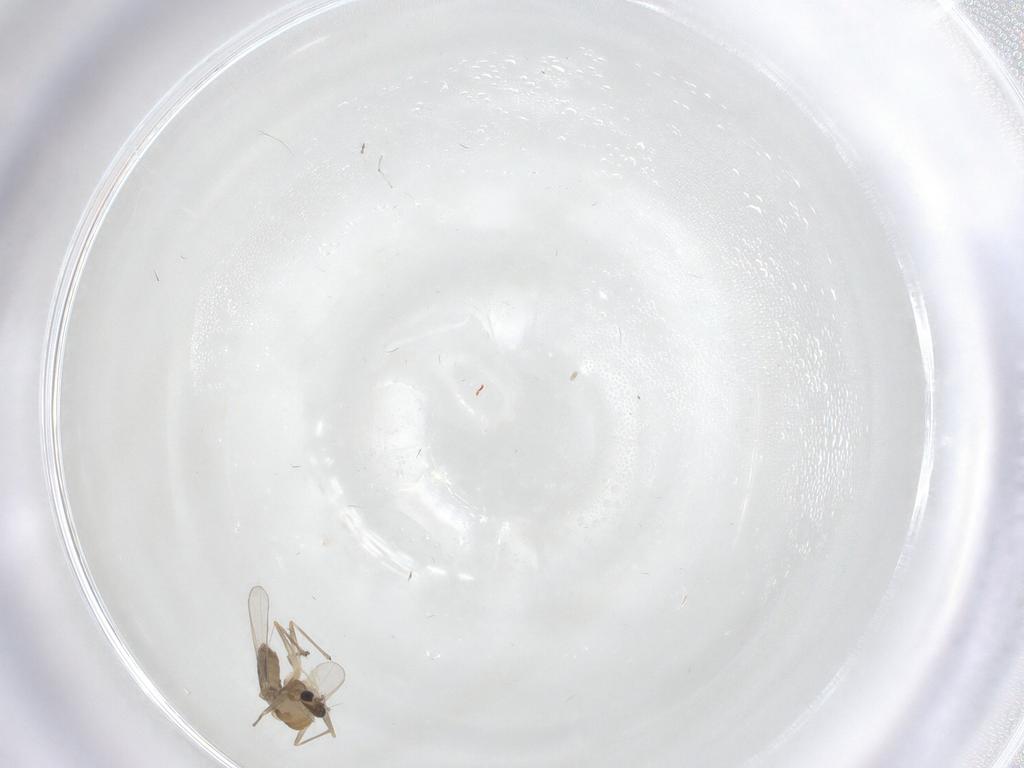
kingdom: Animalia
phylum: Arthropoda
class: Insecta
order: Diptera
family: Chironomidae
